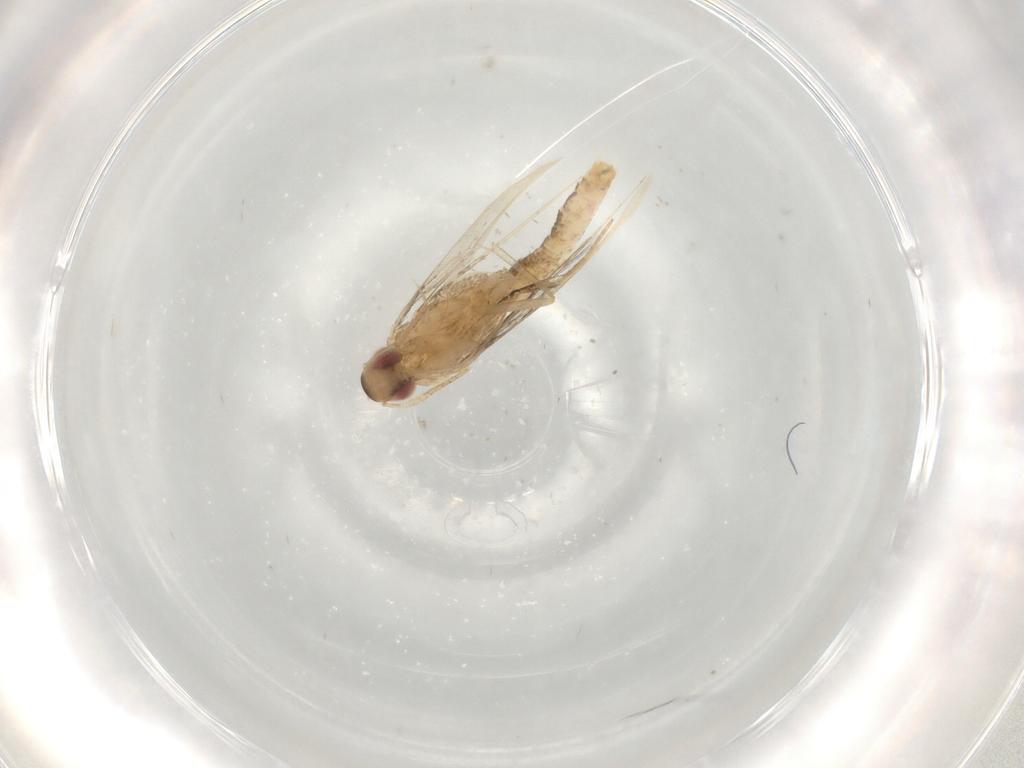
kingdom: Animalia
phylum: Arthropoda
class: Insecta
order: Lepidoptera
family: Cosmopterigidae
